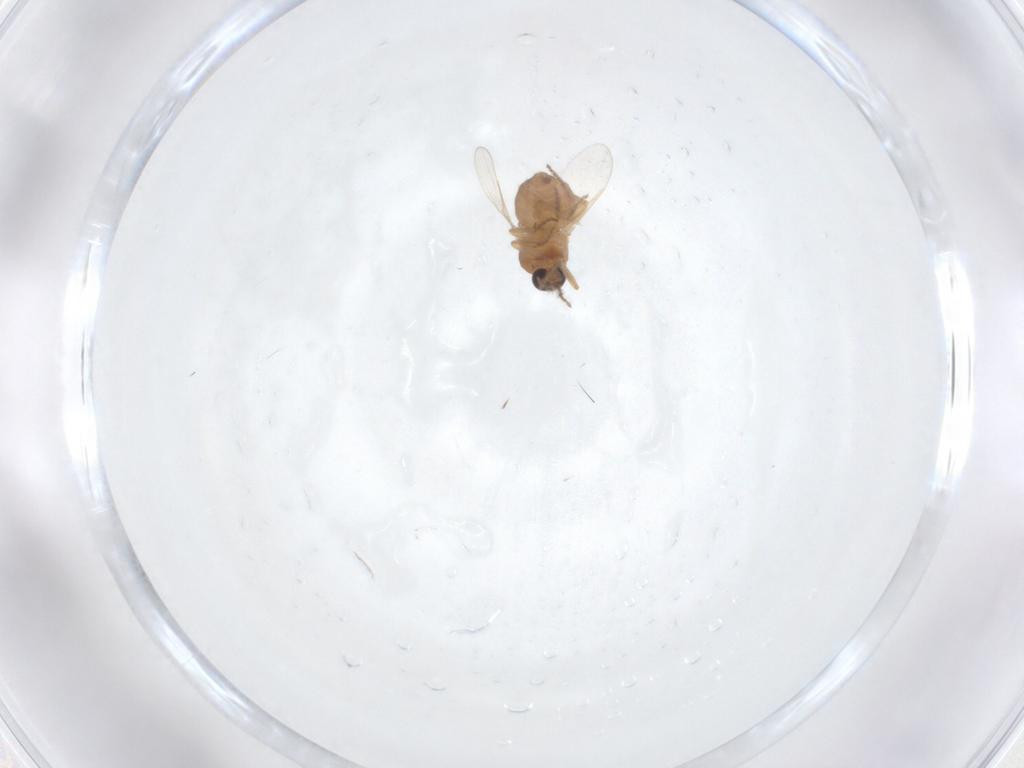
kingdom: Animalia
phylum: Arthropoda
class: Insecta
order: Diptera
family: Ceratopogonidae
